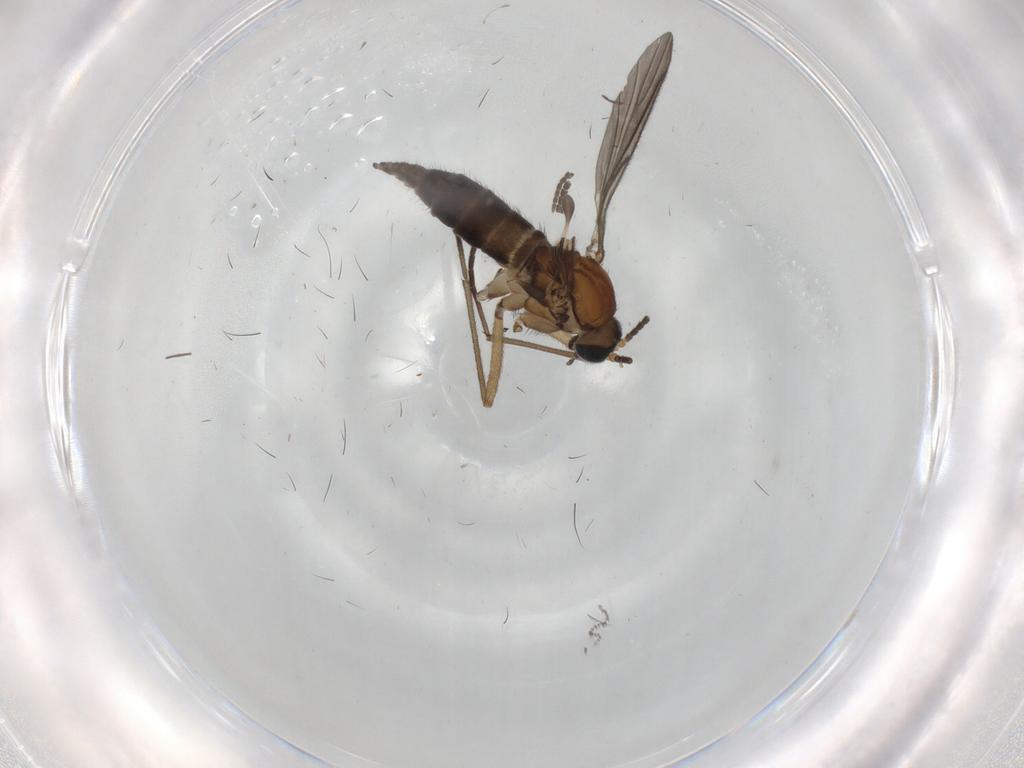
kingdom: Animalia
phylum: Arthropoda
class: Insecta
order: Diptera
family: Sciaridae
